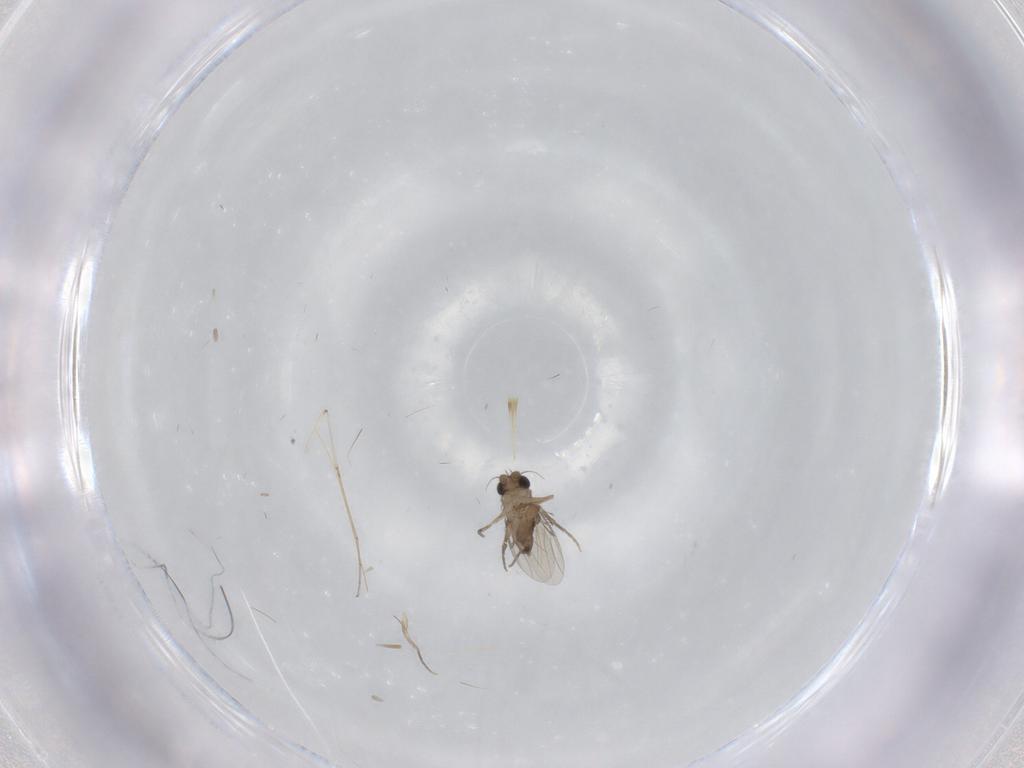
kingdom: Animalia
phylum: Arthropoda
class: Insecta
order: Diptera
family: Phoridae
